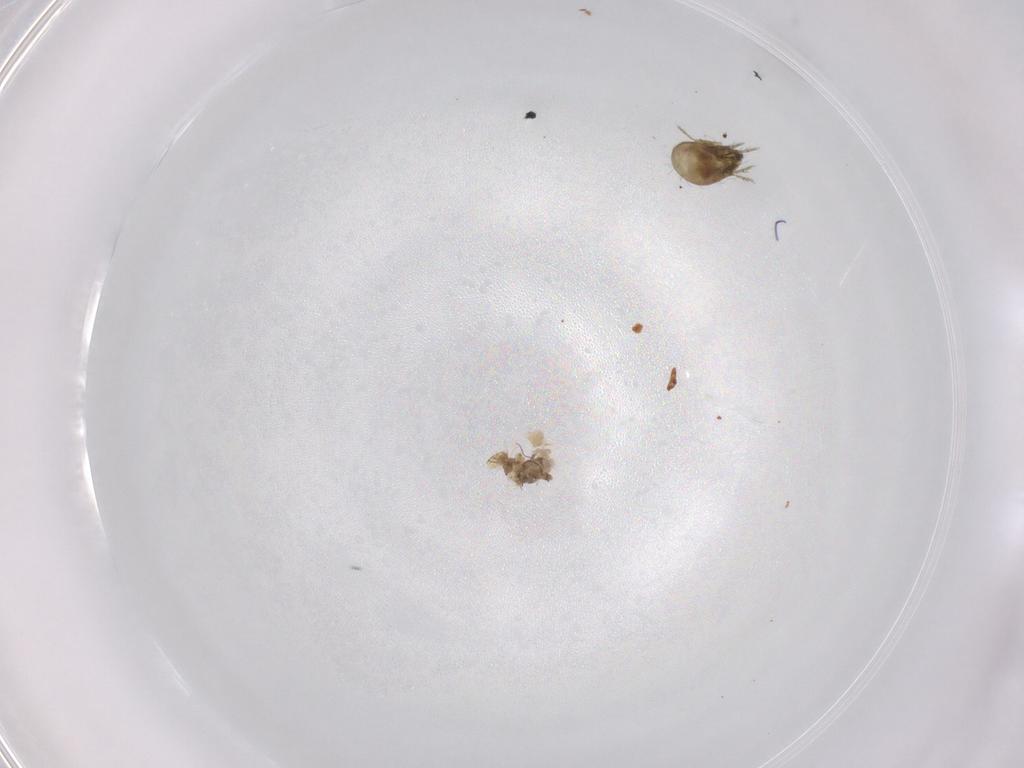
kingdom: Animalia
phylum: Arthropoda
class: Arachnida
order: Sarcoptiformes
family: Humerobatidae
